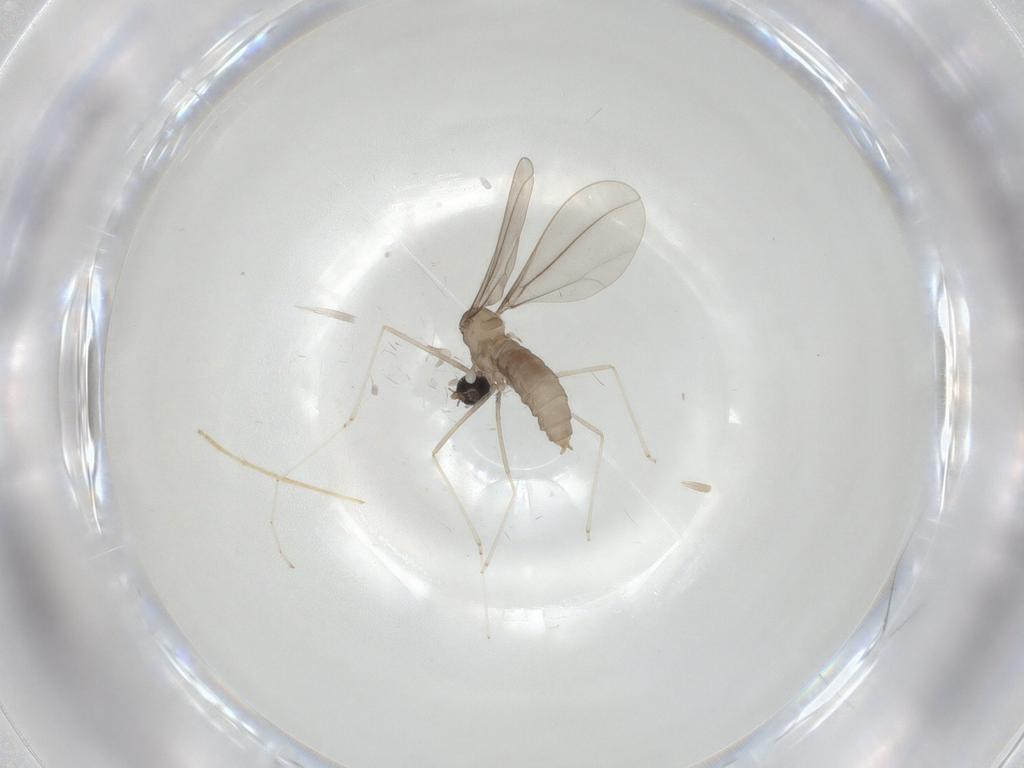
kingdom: Animalia
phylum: Arthropoda
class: Insecta
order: Diptera
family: Cecidomyiidae
